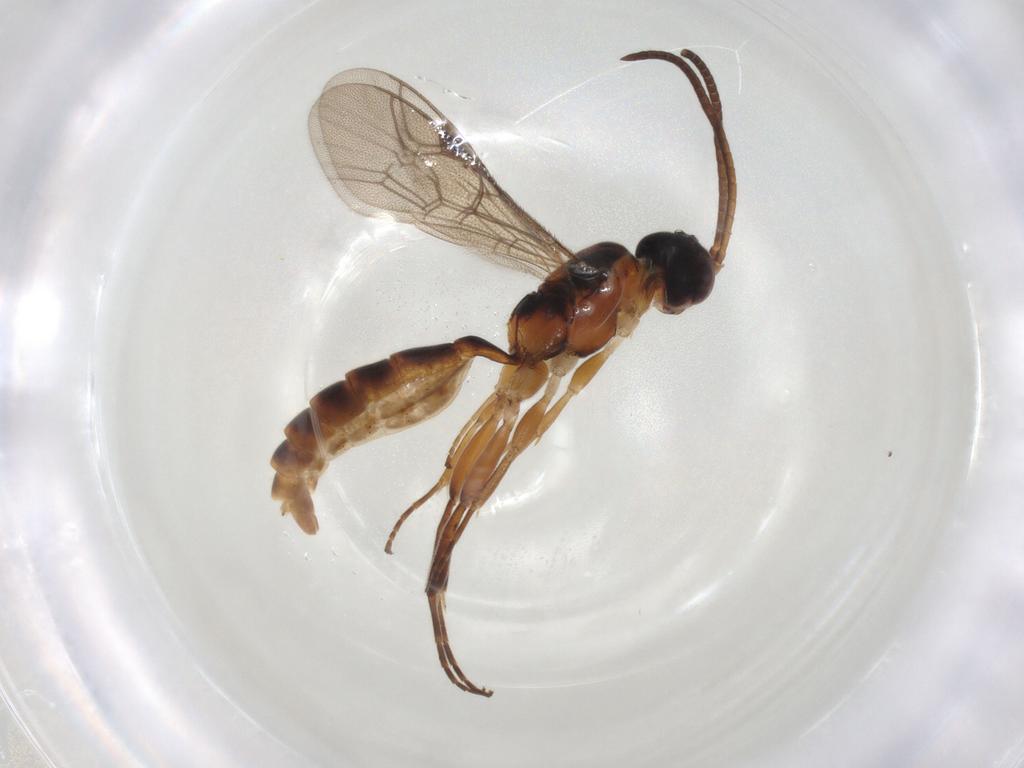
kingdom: Animalia
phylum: Arthropoda
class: Insecta
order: Hymenoptera
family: Ichneumonidae
